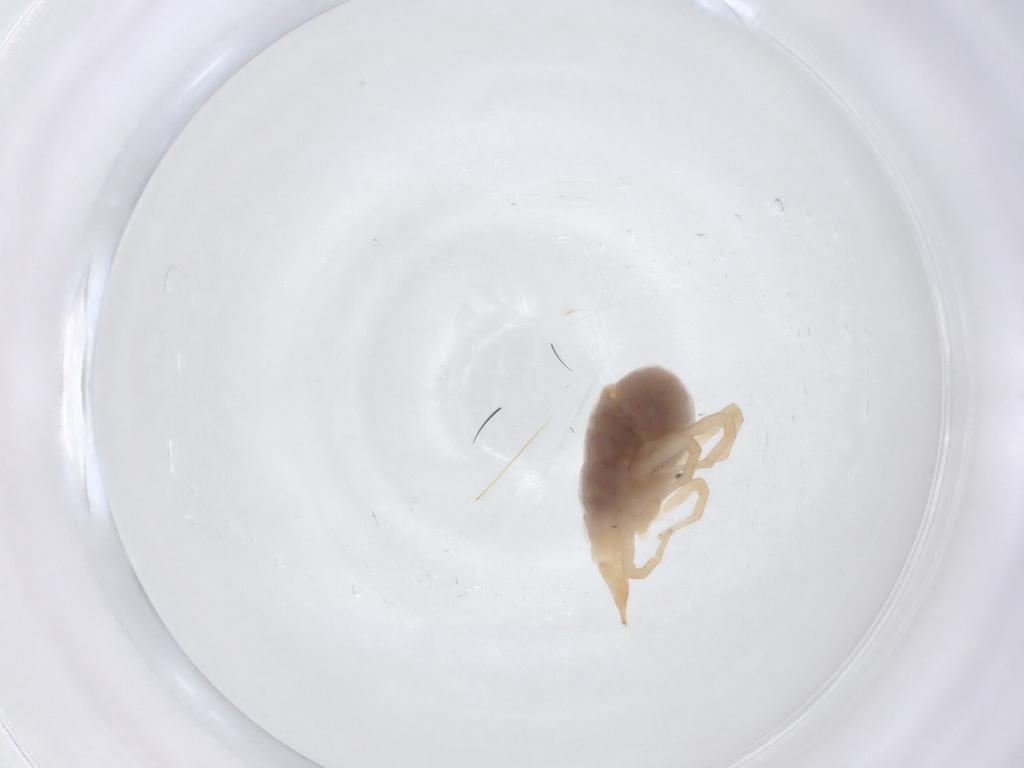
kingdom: Animalia
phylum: Arthropoda
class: Arachnida
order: Trombidiformes
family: Bdellidae
